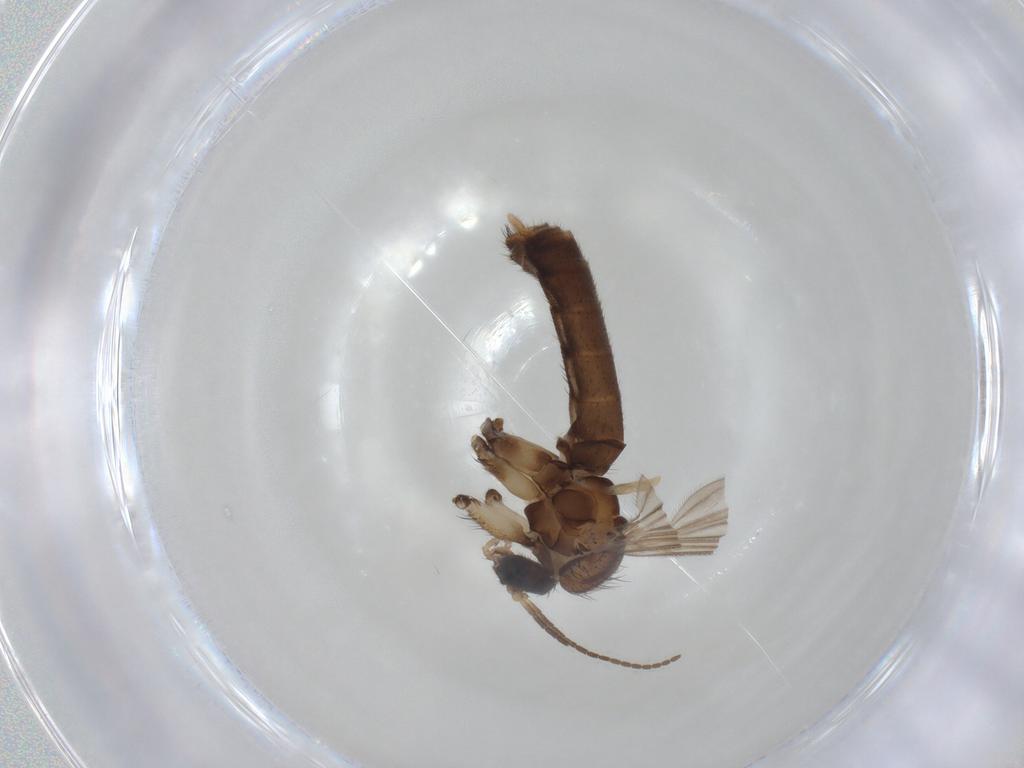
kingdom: Animalia
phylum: Arthropoda
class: Insecta
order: Diptera
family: Mycetophilidae
